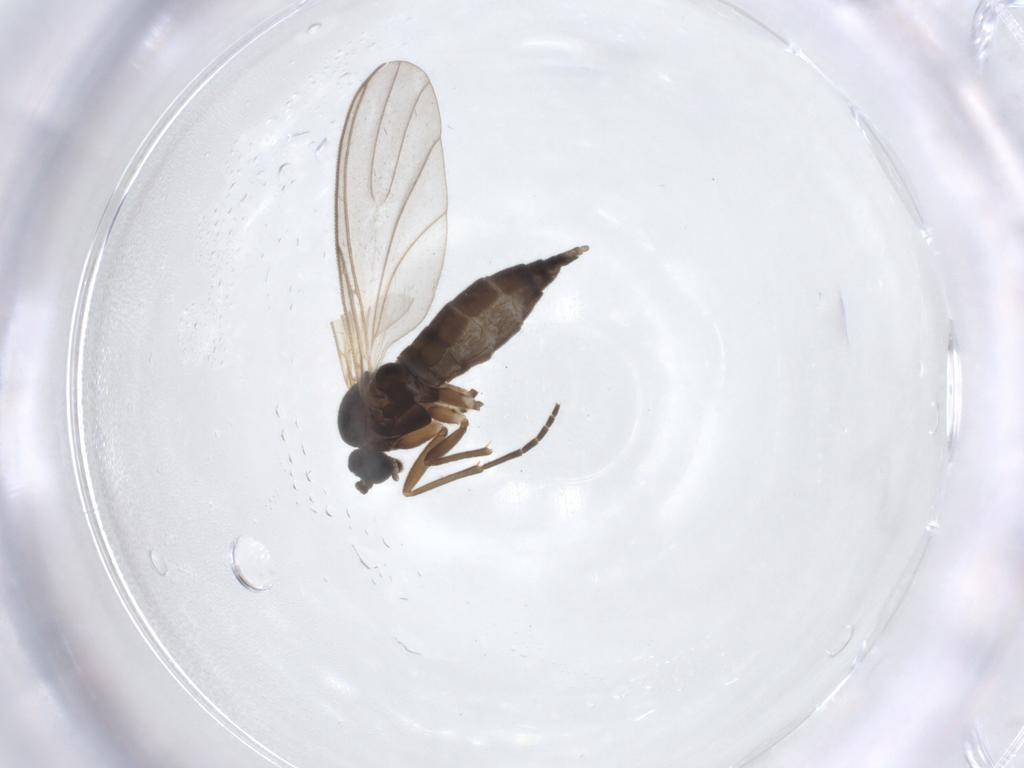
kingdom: Animalia
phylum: Arthropoda
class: Insecta
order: Diptera
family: Sciaridae
